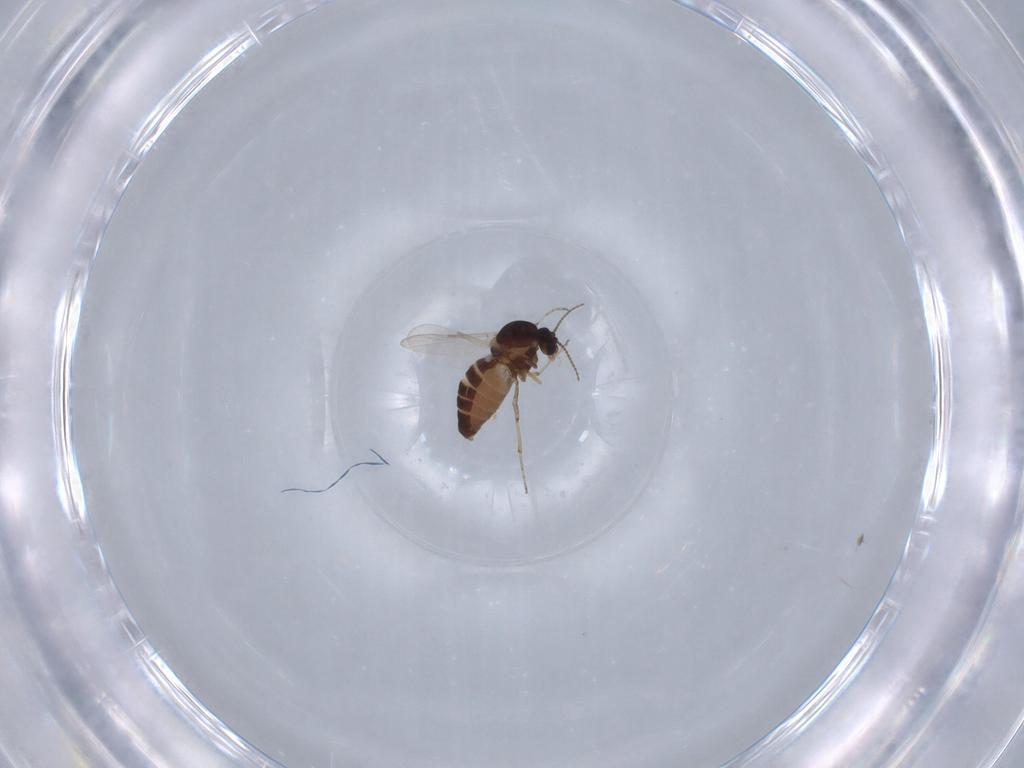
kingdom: Animalia
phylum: Arthropoda
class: Insecta
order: Diptera
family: Ceratopogonidae
